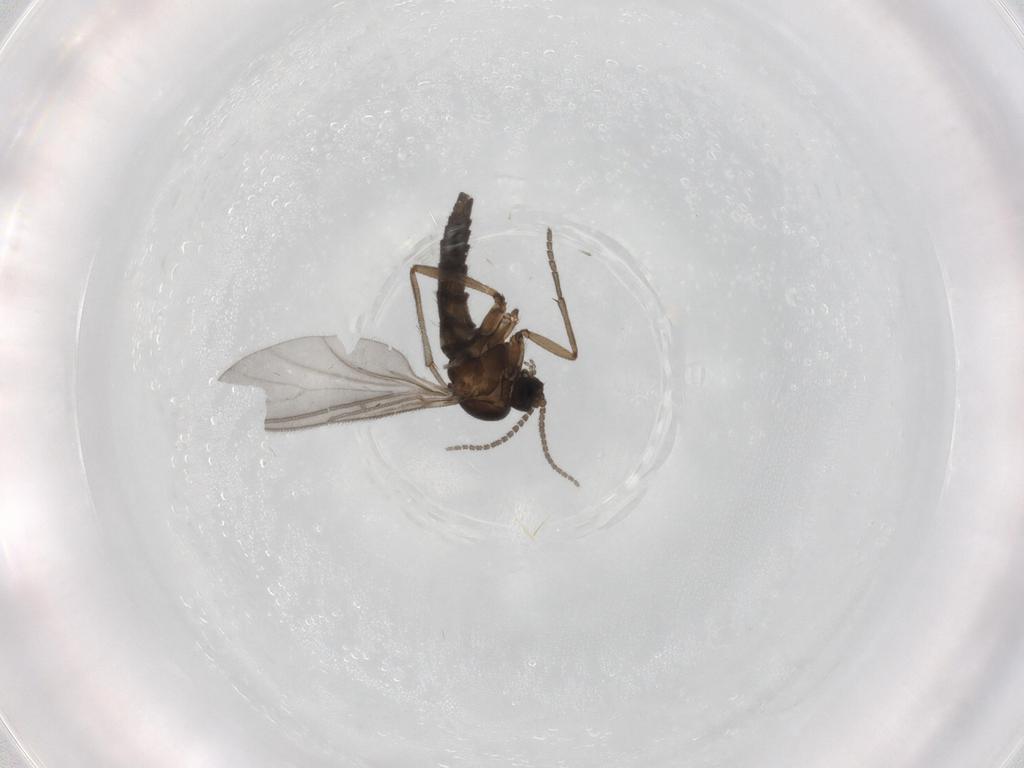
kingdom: Animalia
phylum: Arthropoda
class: Insecta
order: Diptera
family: Sciaridae
